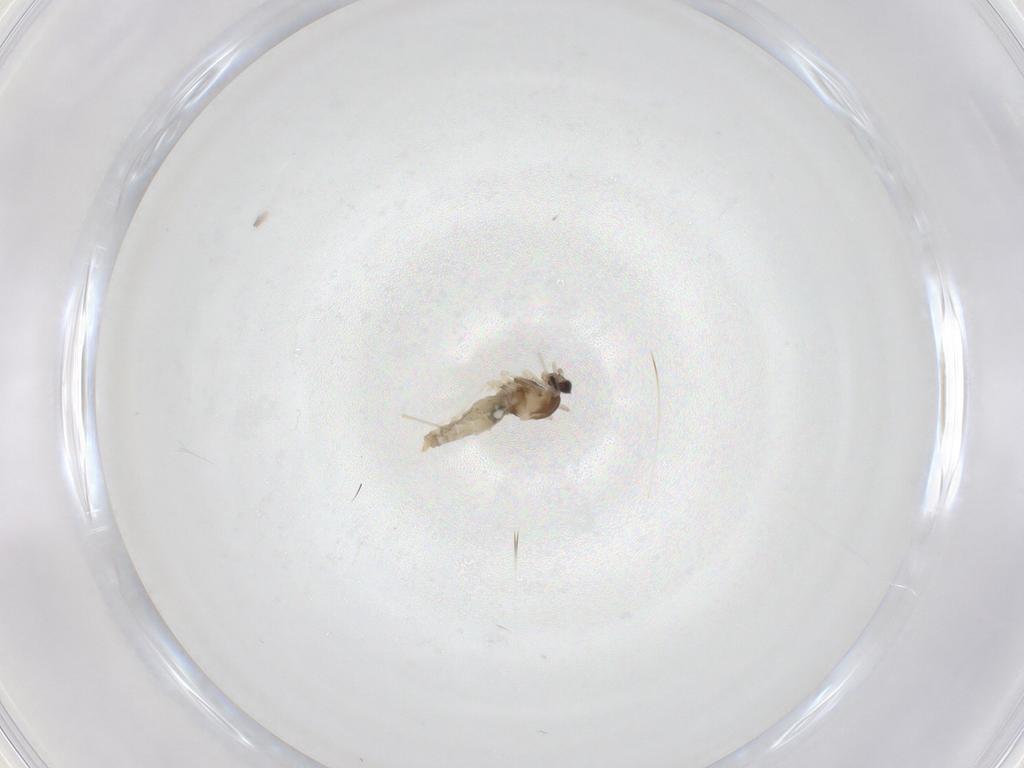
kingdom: Animalia
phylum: Arthropoda
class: Insecta
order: Diptera
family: Cecidomyiidae
